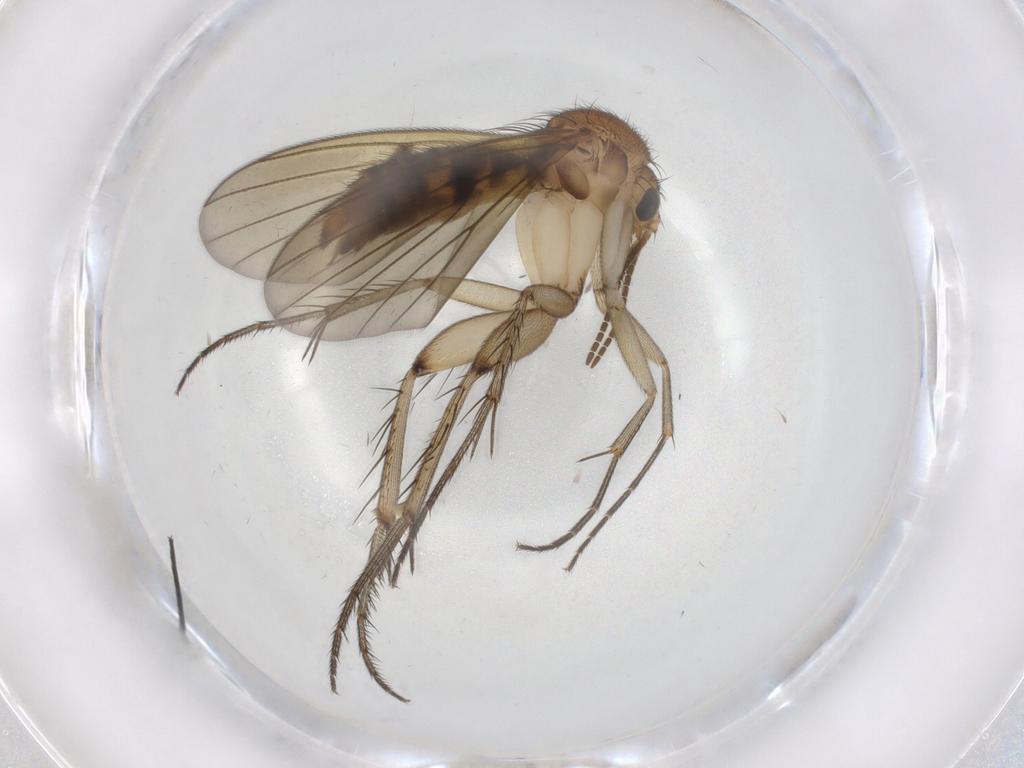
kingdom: Animalia
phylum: Arthropoda
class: Insecta
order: Diptera
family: Mycetophilidae
